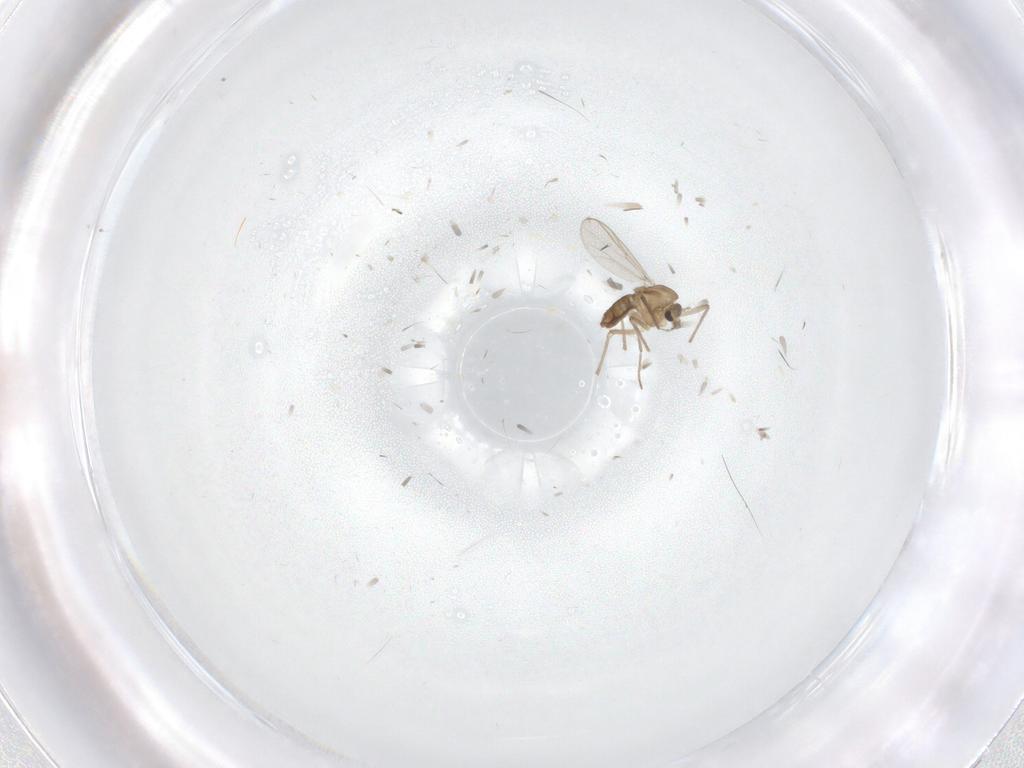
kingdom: Animalia
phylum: Arthropoda
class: Insecta
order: Diptera
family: Chironomidae
